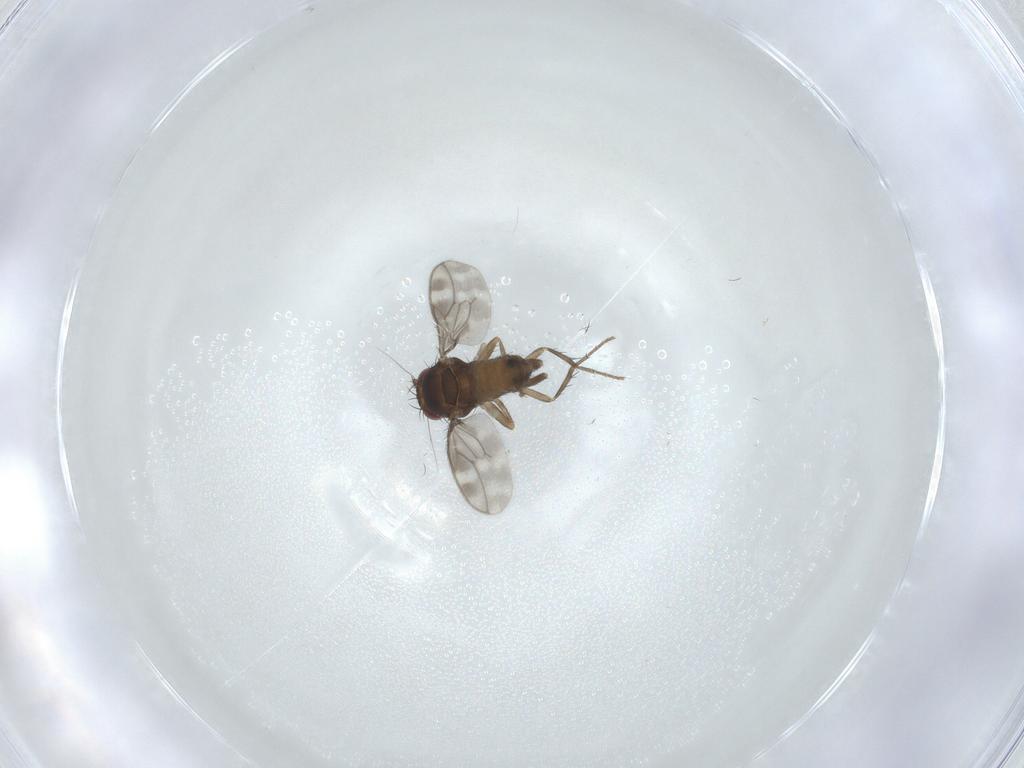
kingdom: Animalia
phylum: Arthropoda
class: Insecta
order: Diptera
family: Sphaeroceridae
